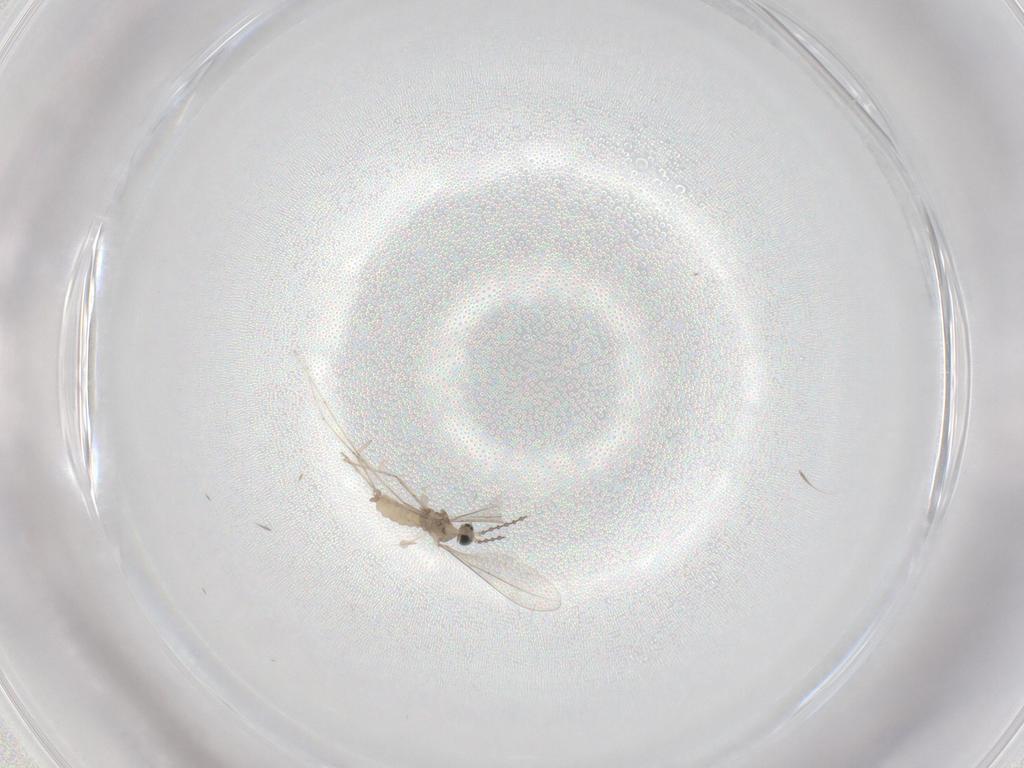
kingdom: Animalia
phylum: Arthropoda
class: Insecta
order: Diptera
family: Cecidomyiidae
